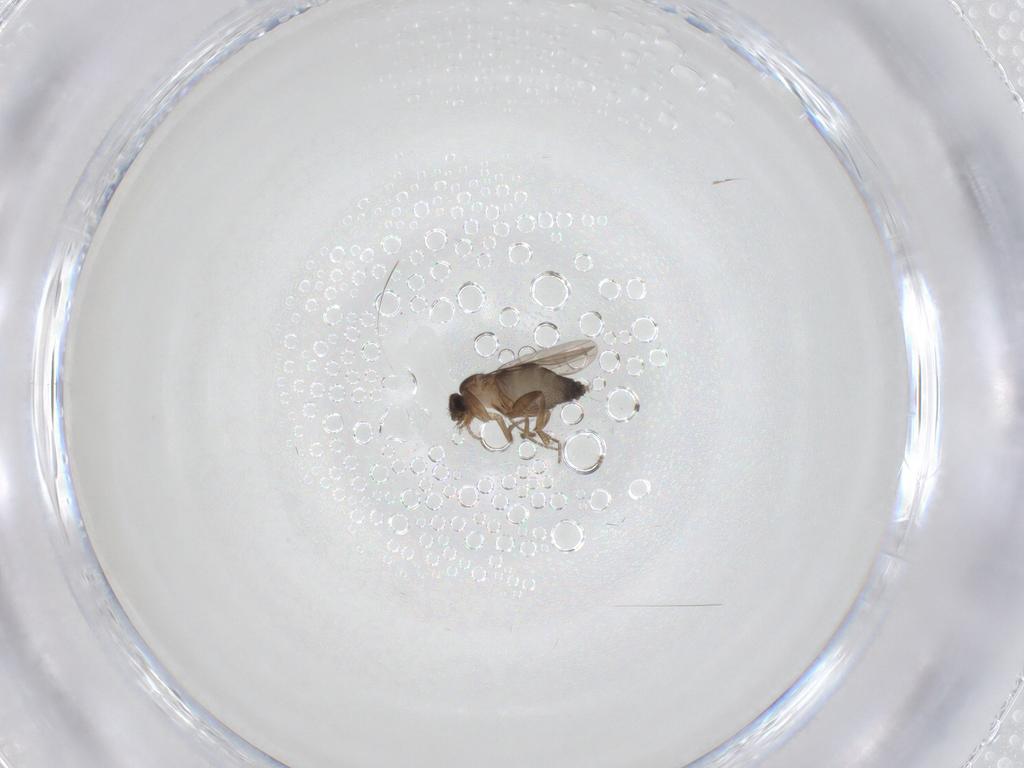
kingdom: Animalia
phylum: Arthropoda
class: Insecta
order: Diptera
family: Phoridae
